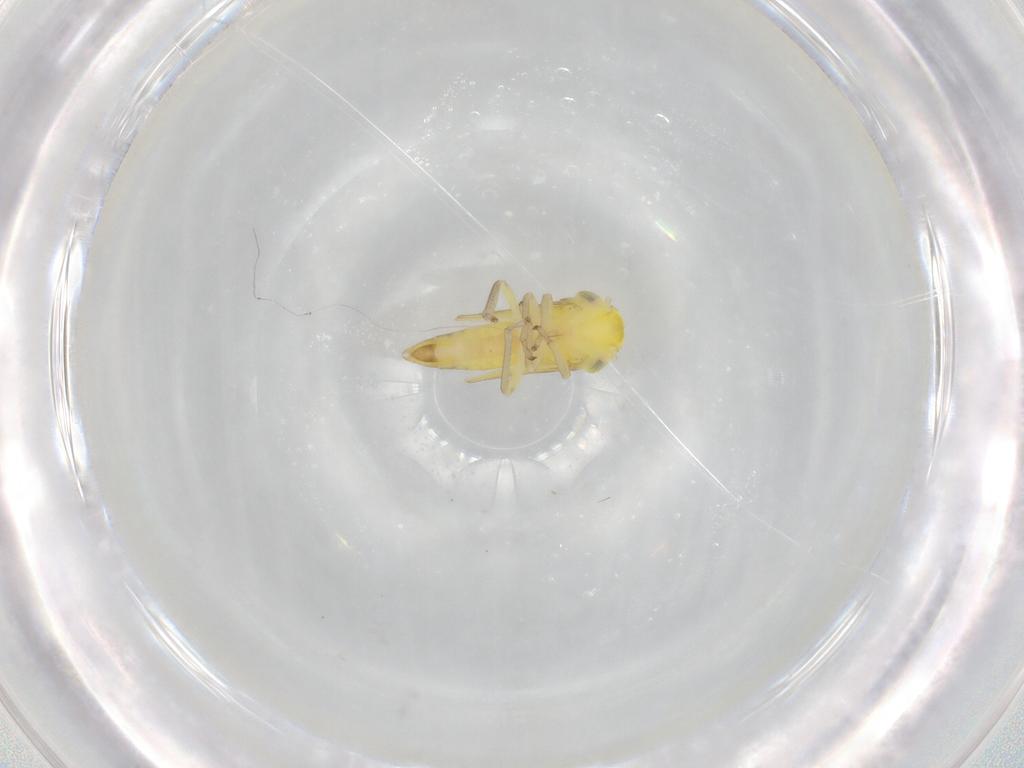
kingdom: Animalia
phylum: Arthropoda
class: Insecta
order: Hemiptera
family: Cicadellidae
